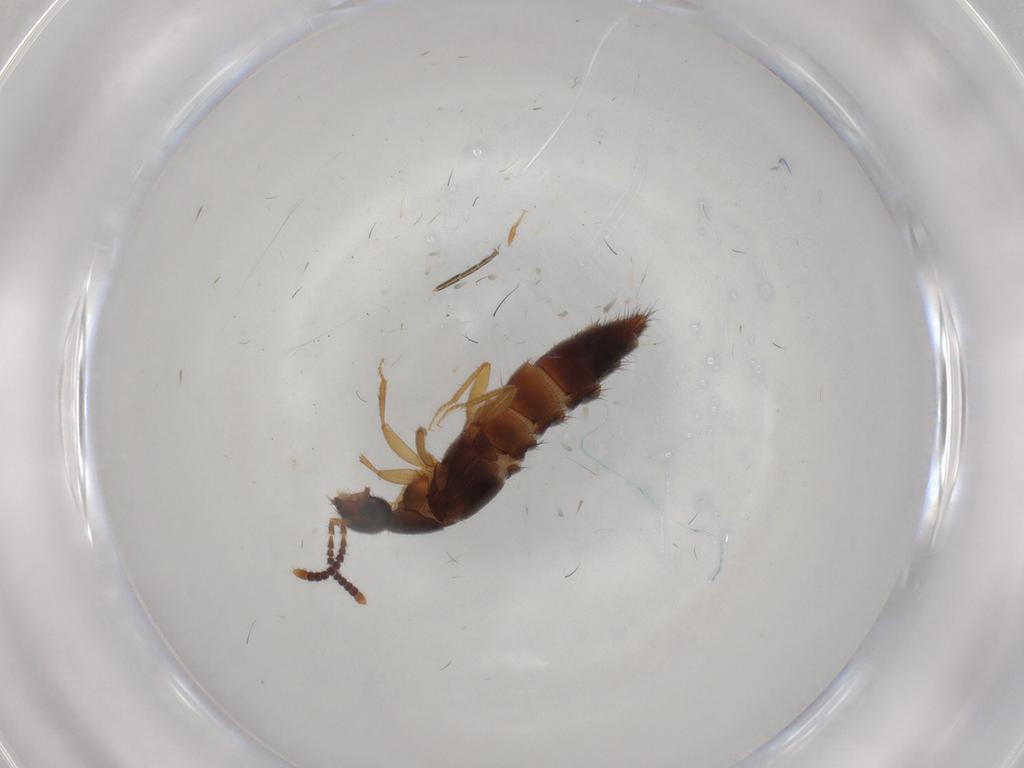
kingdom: Animalia
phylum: Arthropoda
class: Insecta
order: Coleoptera
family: Staphylinidae
